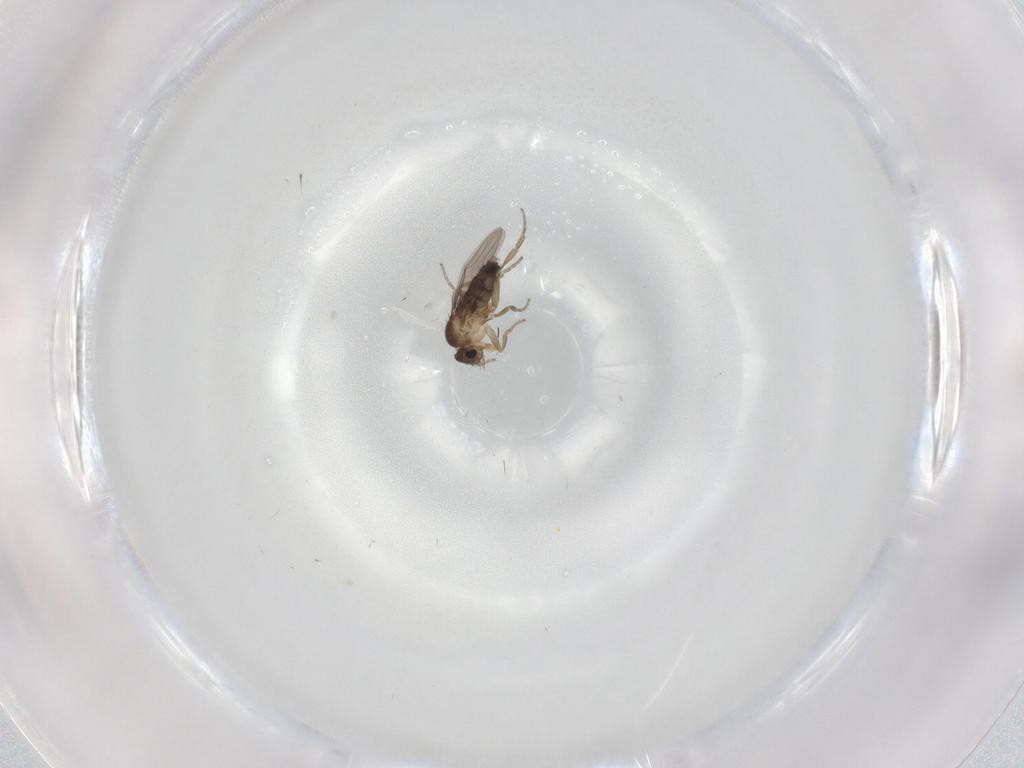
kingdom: Animalia
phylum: Arthropoda
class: Insecta
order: Diptera
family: Phoridae
